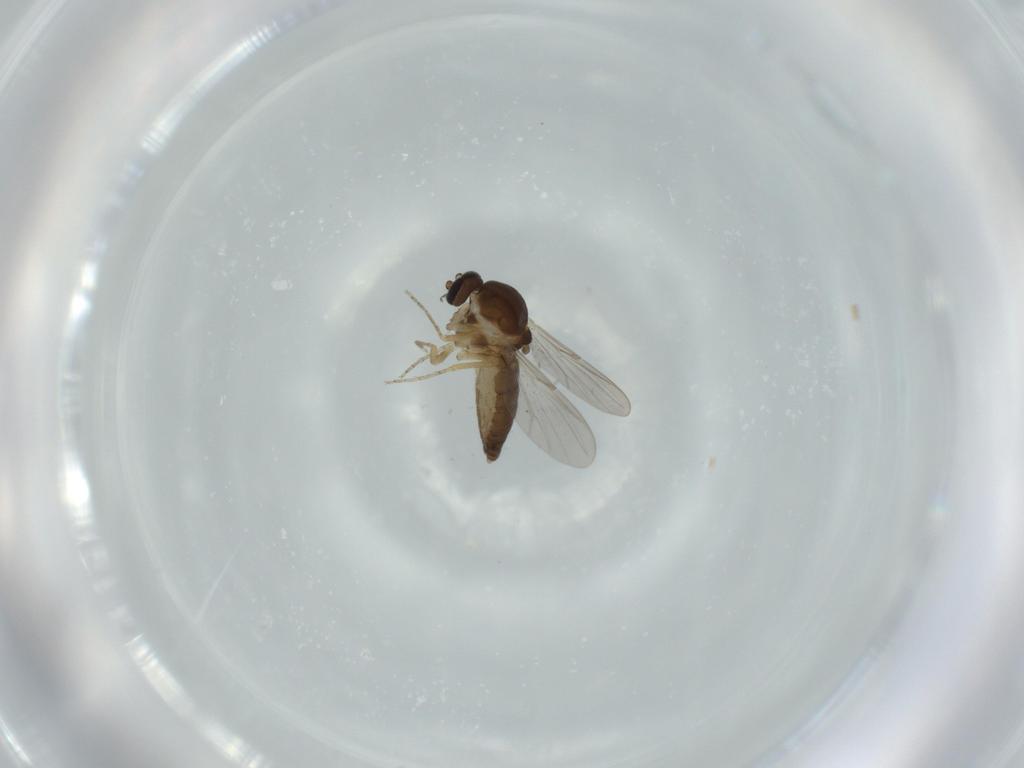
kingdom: Animalia
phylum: Arthropoda
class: Insecta
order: Diptera
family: Ceratopogonidae
